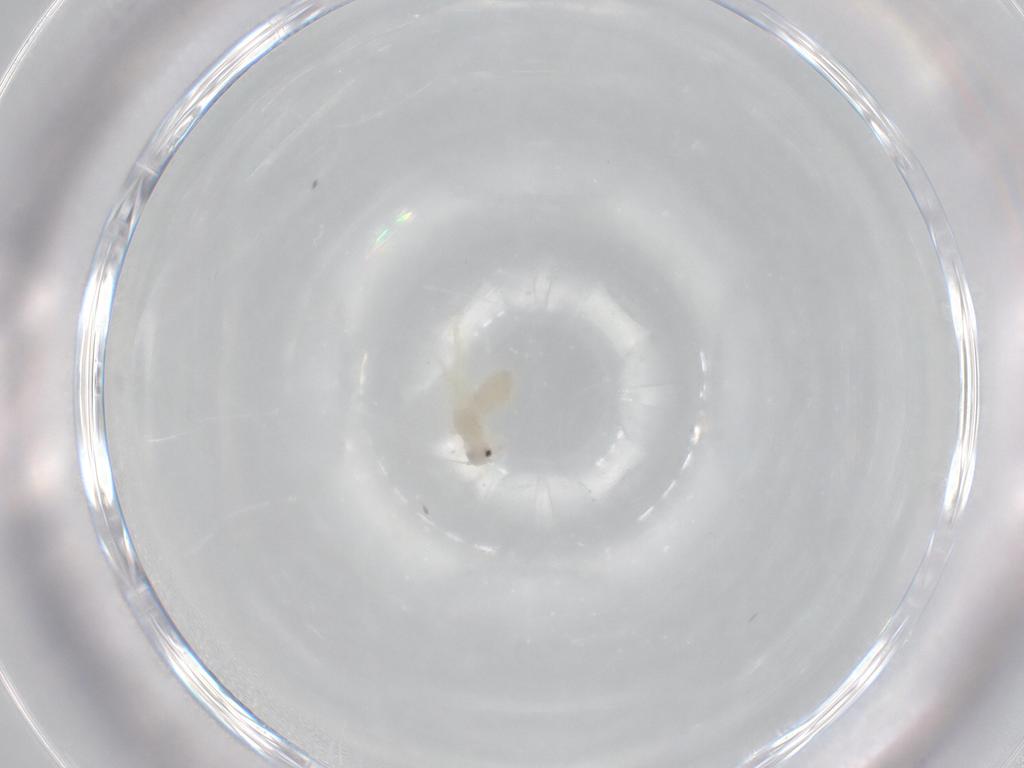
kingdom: Animalia
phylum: Arthropoda
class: Insecta
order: Hemiptera
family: Aleyrodidae
